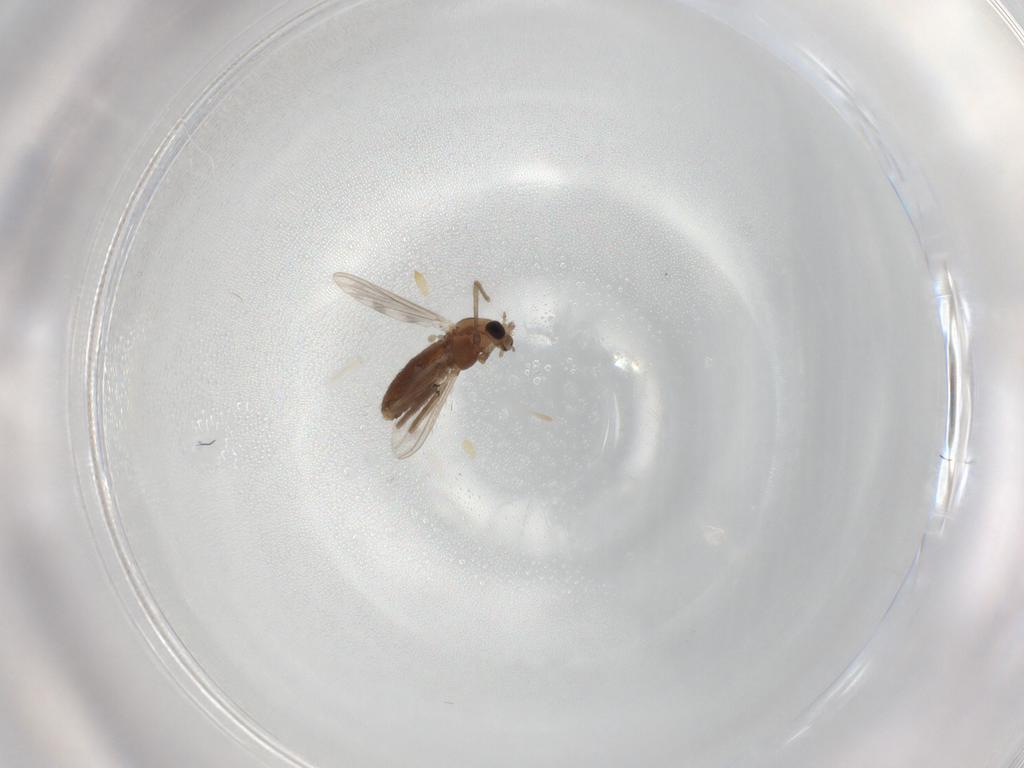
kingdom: Animalia
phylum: Arthropoda
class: Insecta
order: Diptera
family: Chironomidae
